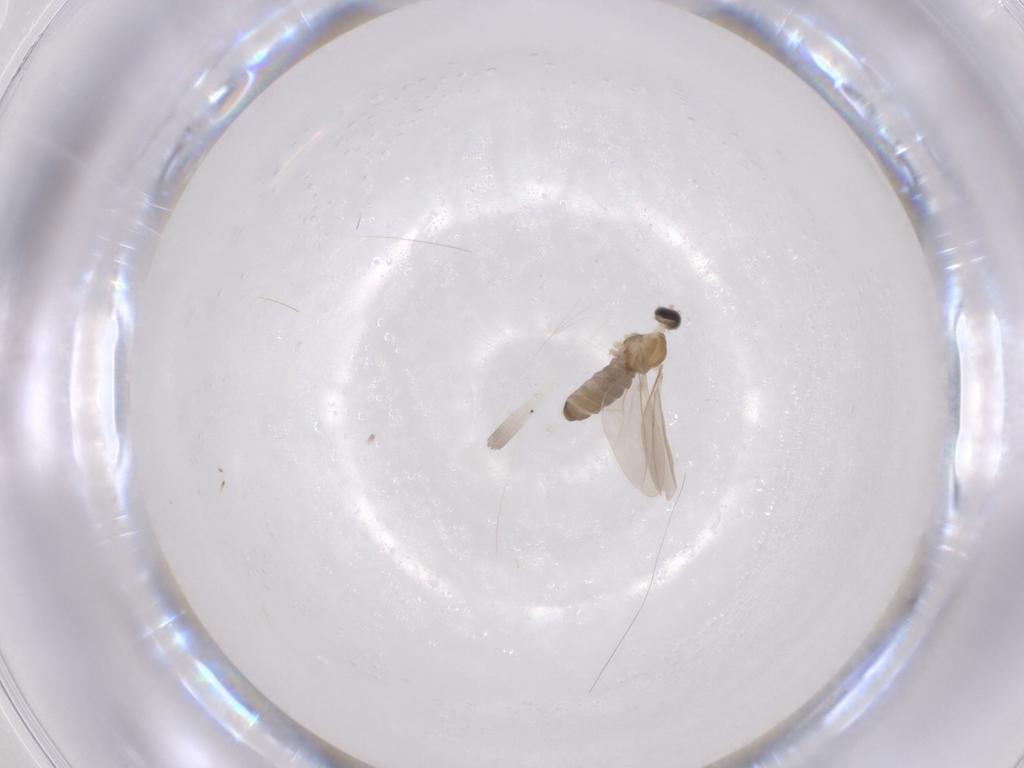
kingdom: Animalia
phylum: Arthropoda
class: Insecta
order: Diptera
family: Cecidomyiidae
